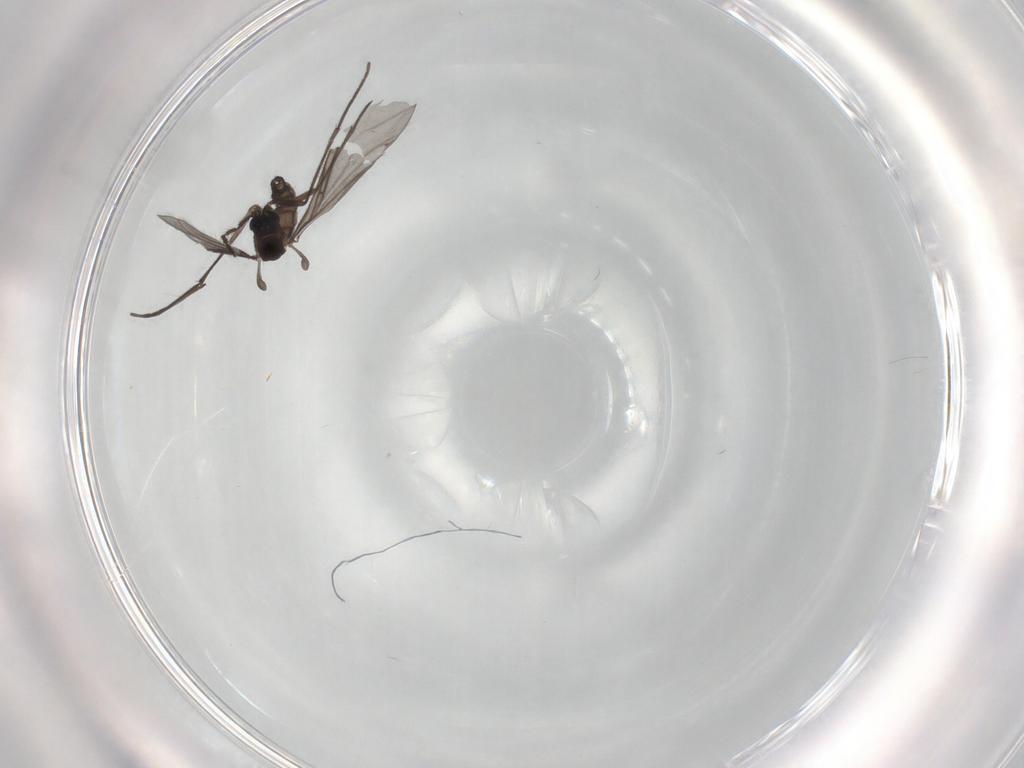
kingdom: Animalia
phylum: Arthropoda
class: Insecta
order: Diptera
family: Sciaridae
